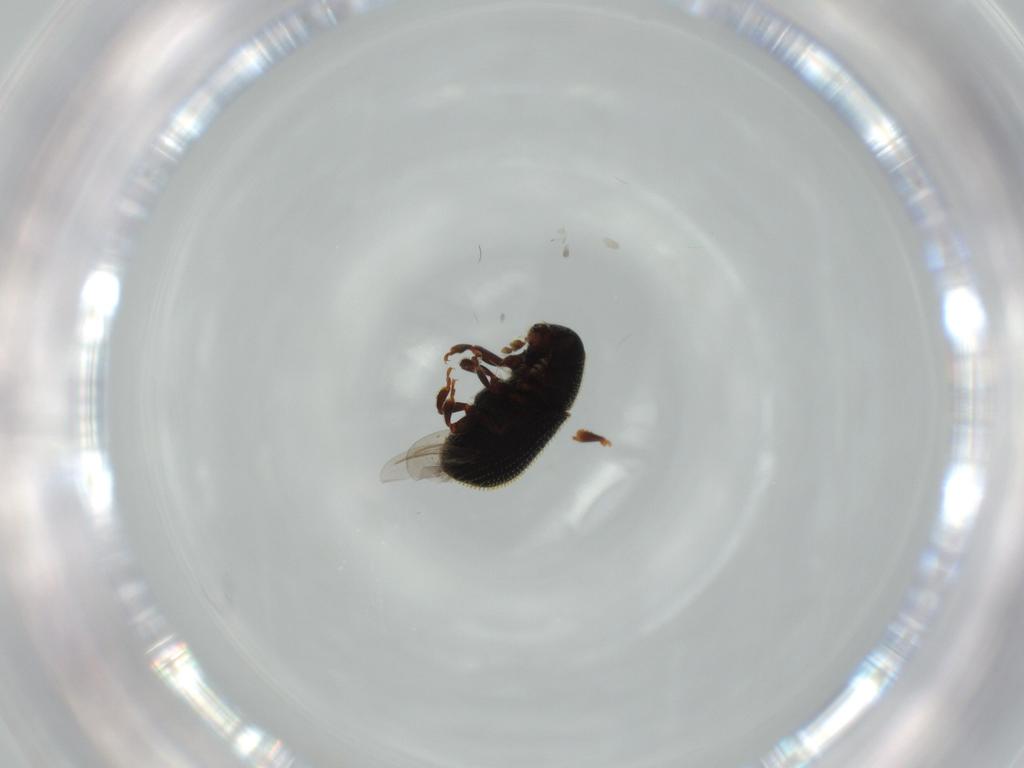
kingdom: Animalia
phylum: Arthropoda
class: Insecta
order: Coleoptera
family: Curculionidae
